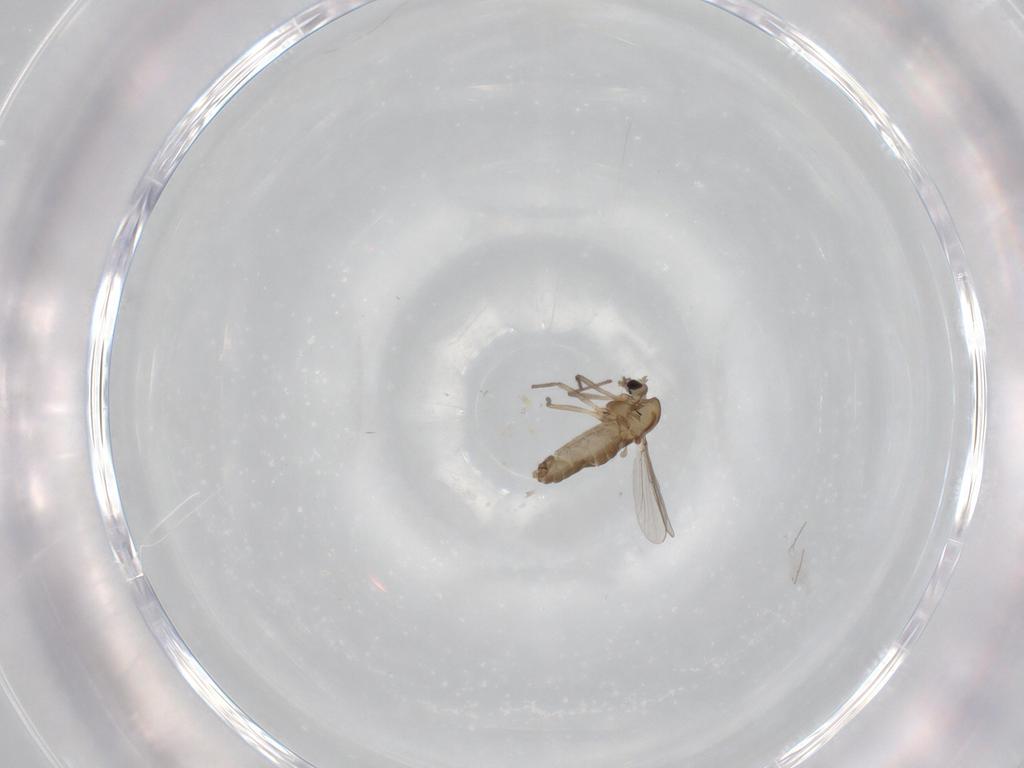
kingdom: Animalia
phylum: Arthropoda
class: Insecta
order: Diptera
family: Chironomidae
